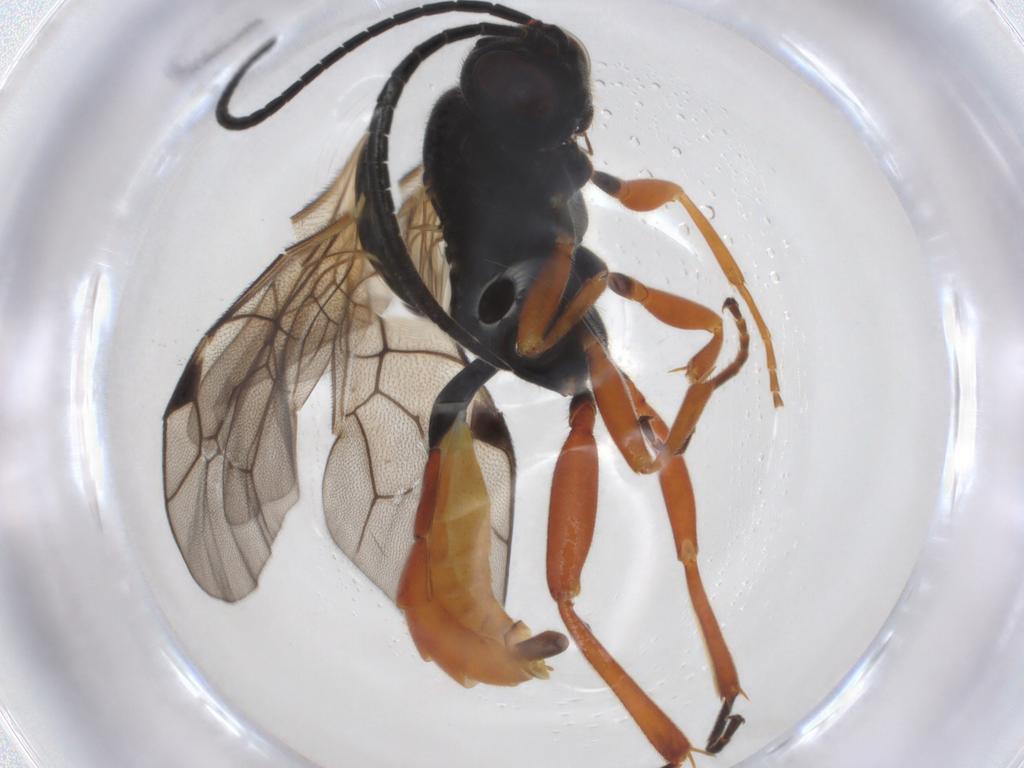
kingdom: Animalia
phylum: Arthropoda
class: Insecta
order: Hymenoptera
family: Ichneumonidae
